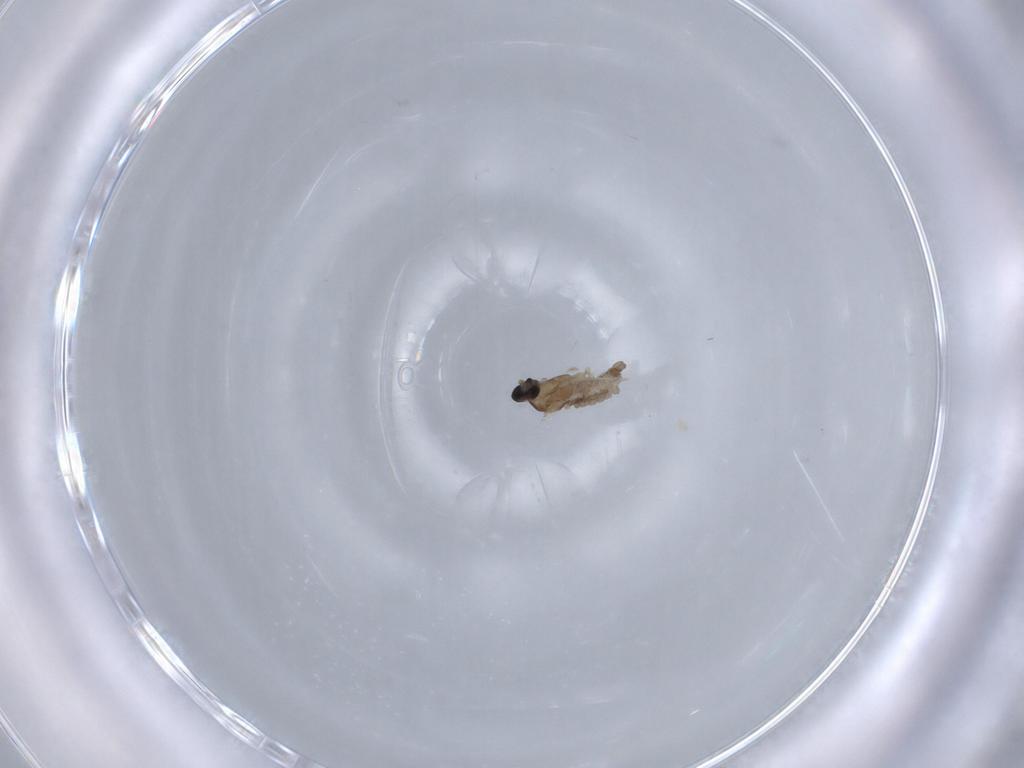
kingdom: Animalia
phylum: Arthropoda
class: Insecta
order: Diptera
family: Cecidomyiidae
